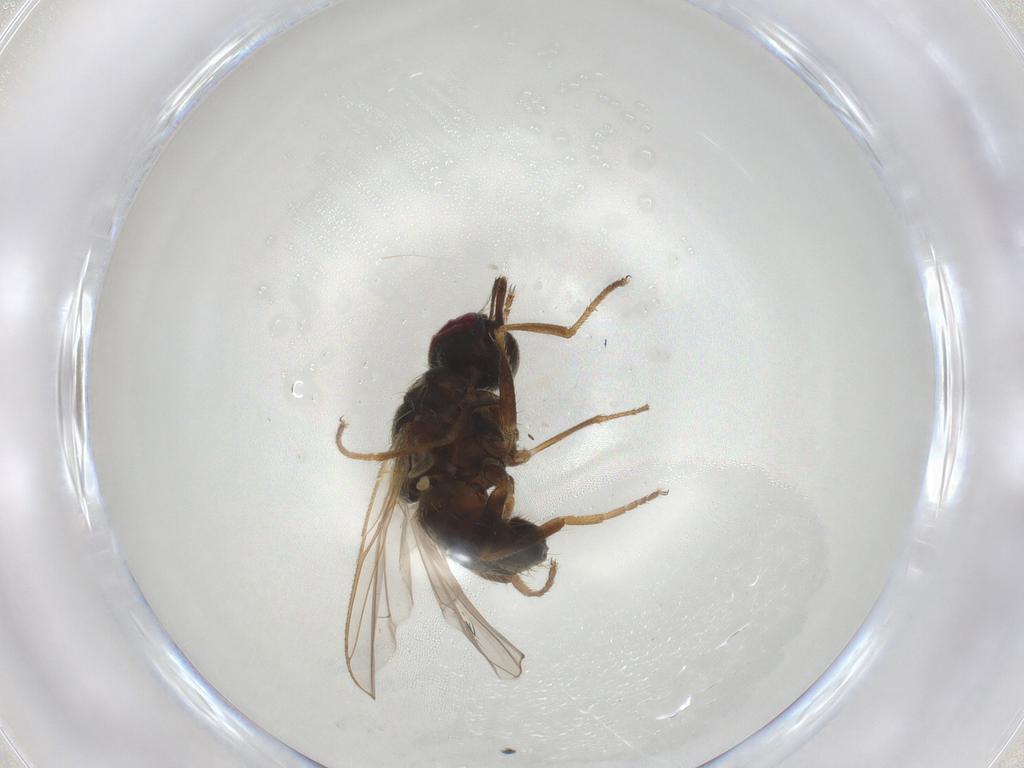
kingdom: Animalia
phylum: Arthropoda
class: Insecta
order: Diptera
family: Muscidae
